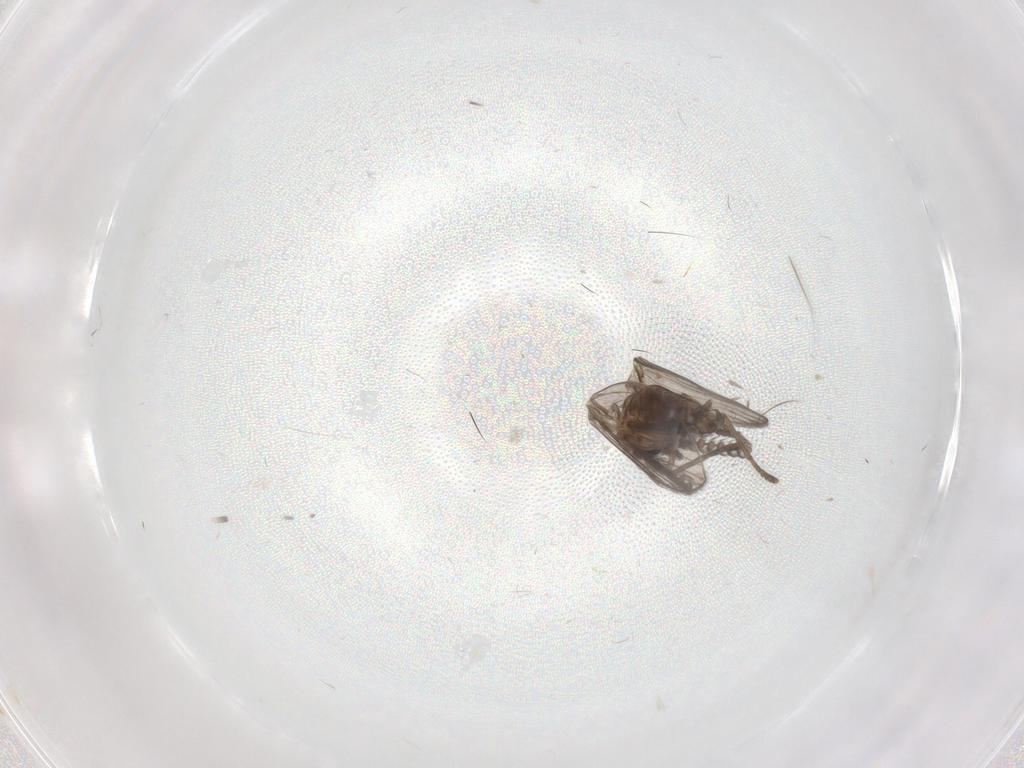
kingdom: Animalia
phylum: Arthropoda
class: Insecta
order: Diptera
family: Psychodidae
